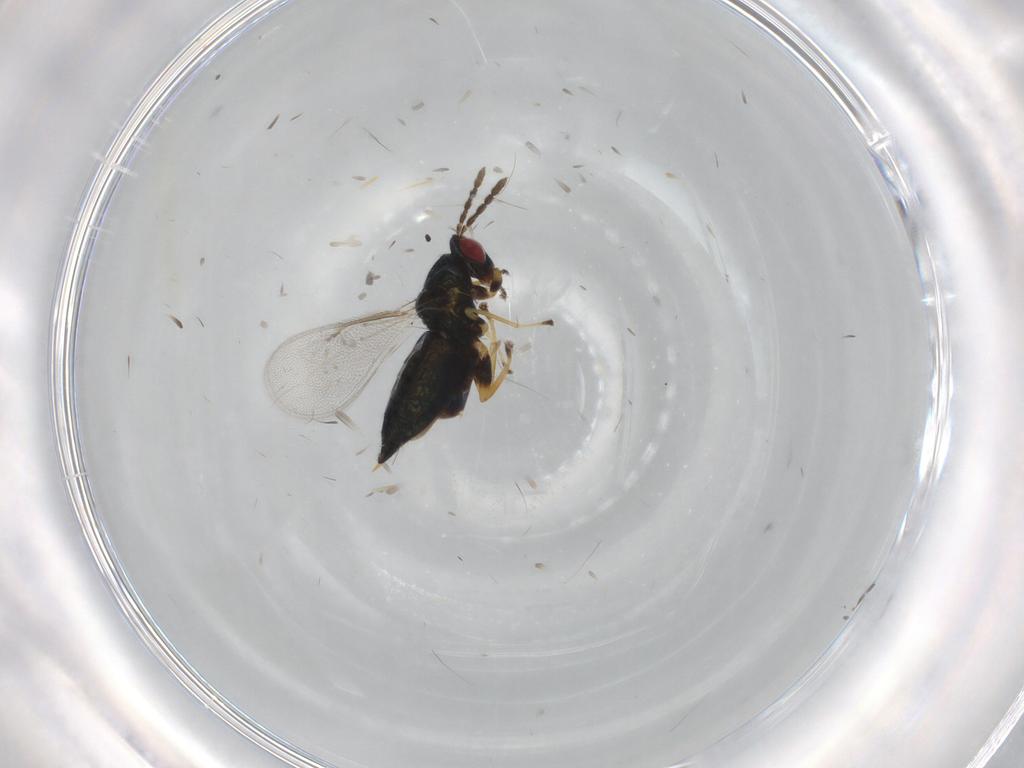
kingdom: Animalia
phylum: Arthropoda
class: Insecta
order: Hymenoptera
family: Eulophidae
